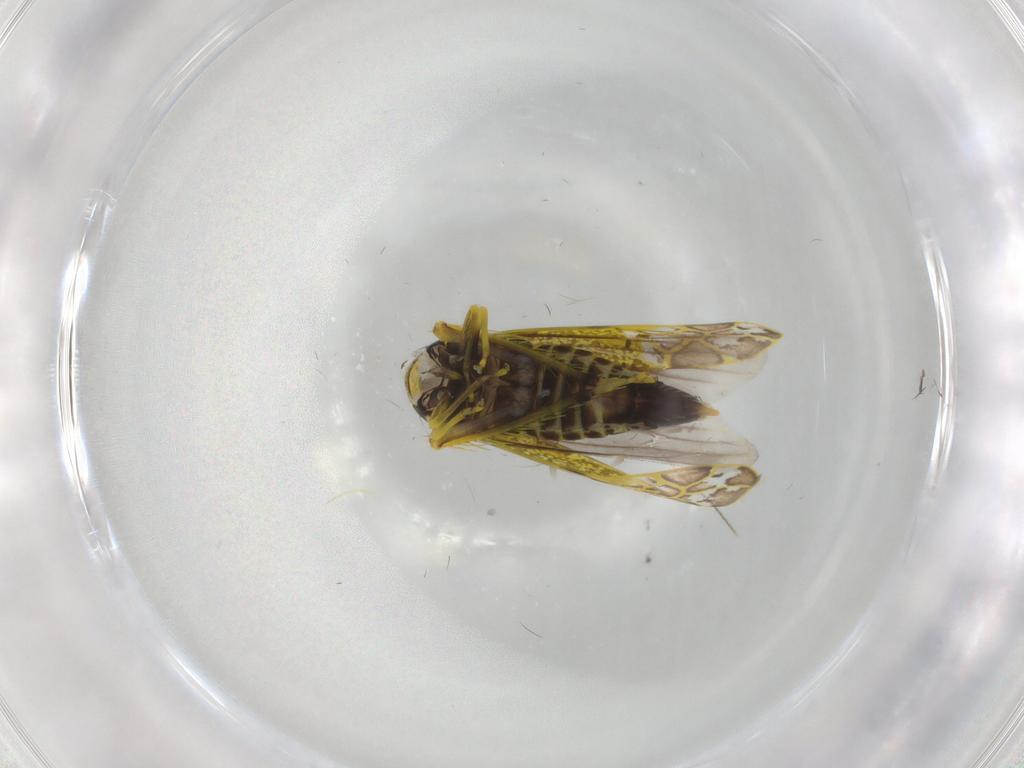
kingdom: Animalia
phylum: Arthropoda
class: Insecta
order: Hemiptera
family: Cicadellidae
